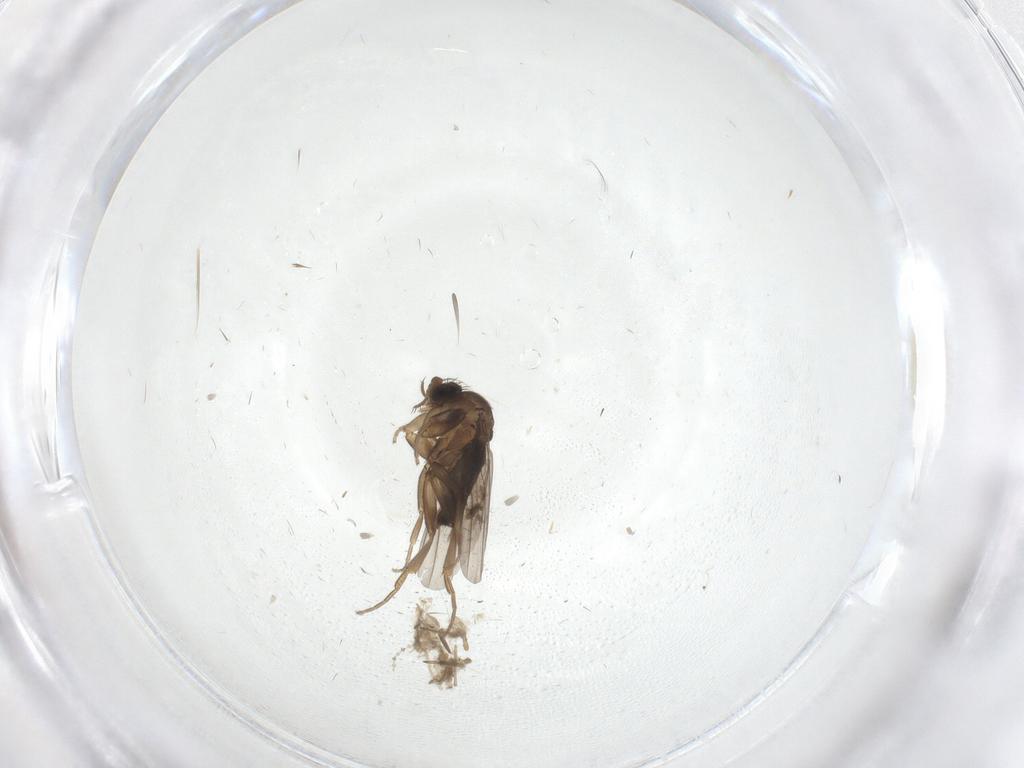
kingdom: Animalia
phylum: Arthropoda
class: Insecta
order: Diptera
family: Phoridae
